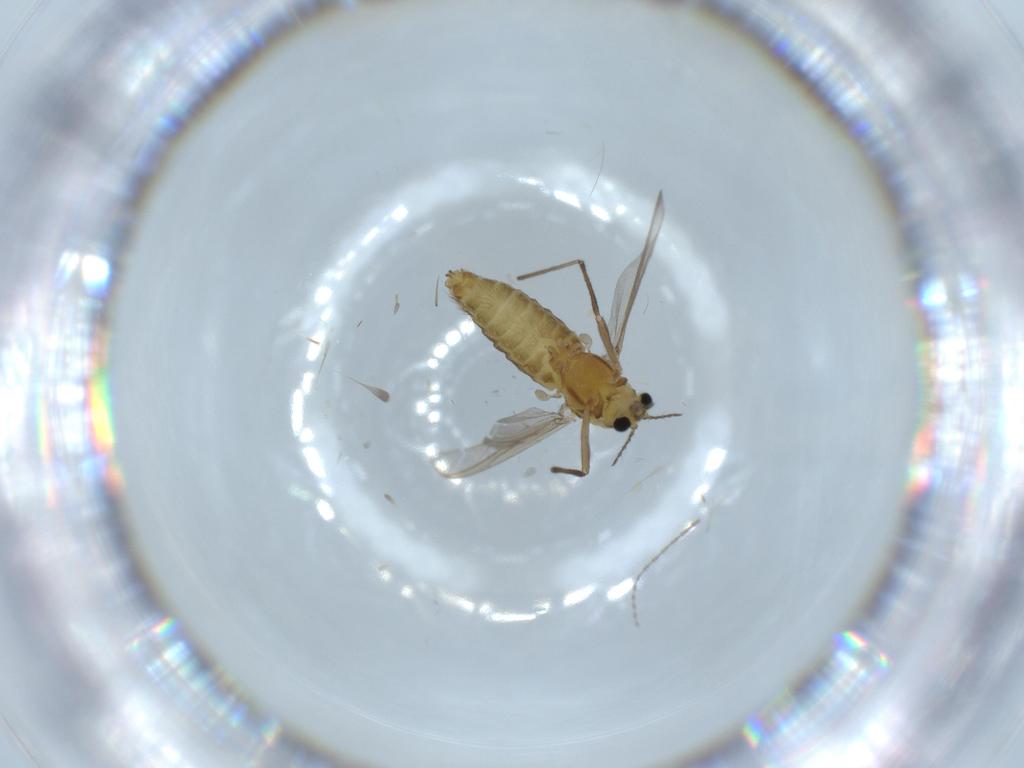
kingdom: Animalia
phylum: Arthropoda
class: Insecta
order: Diptera
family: Chironomidae
